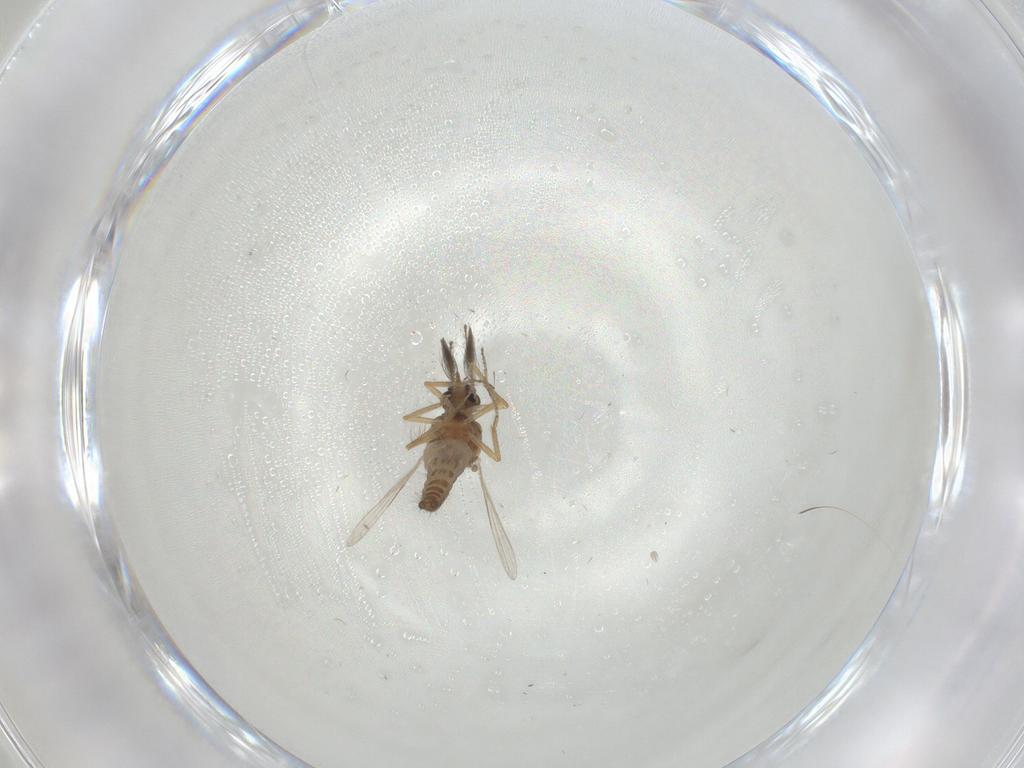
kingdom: Animalia
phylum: Arthropoda
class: Insecta
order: Diptera
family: Ceratopogonidae
